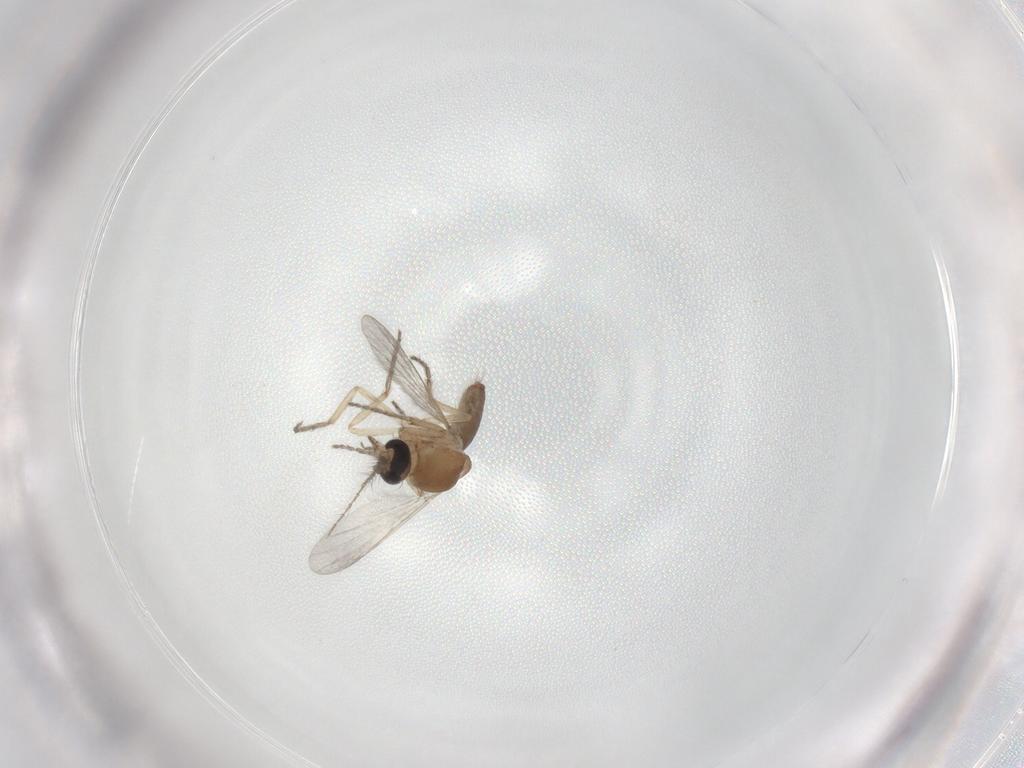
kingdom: Animalia
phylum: Arthropoda
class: Insecta
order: Diptera
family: Ceratopogonidae
